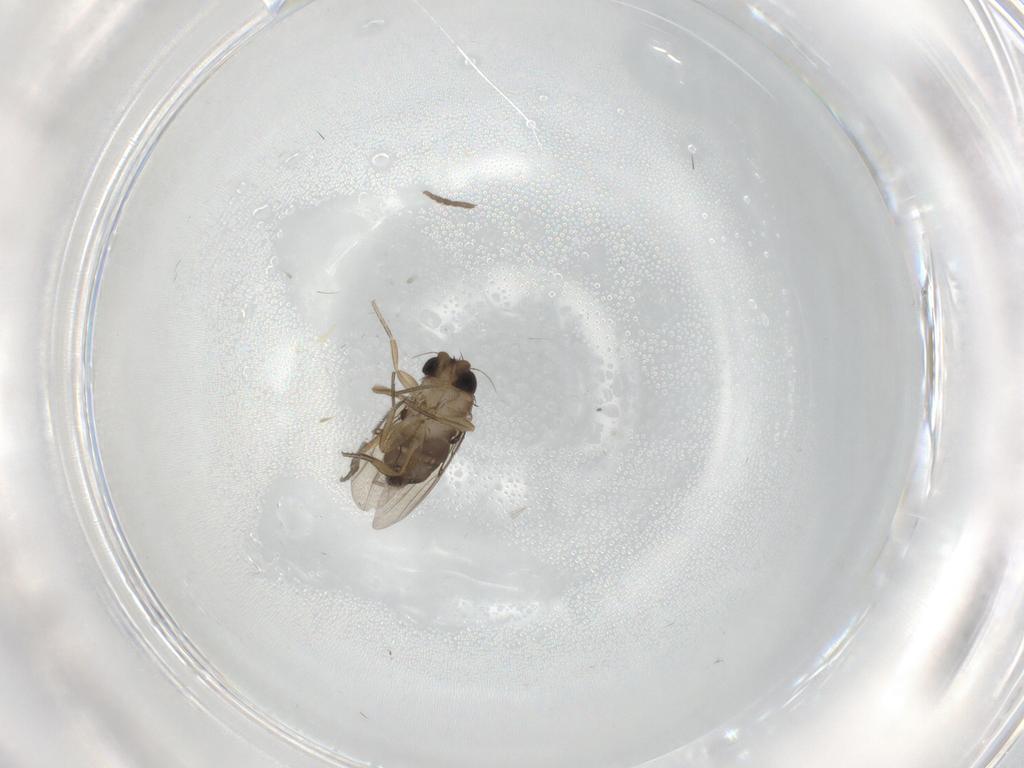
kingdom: Animalia
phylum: Arthropoda
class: Insecta
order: Diptera
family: Phoridae
